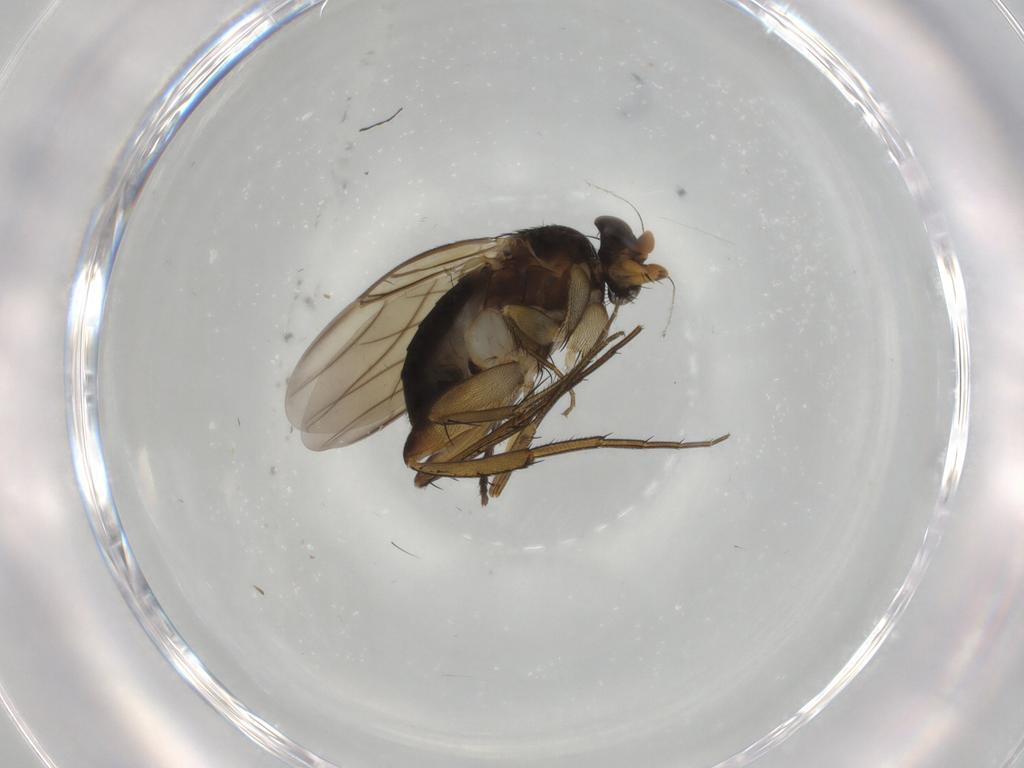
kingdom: Animalia
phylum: Arthropoda
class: Insecta
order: Diptera
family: Phoridae
